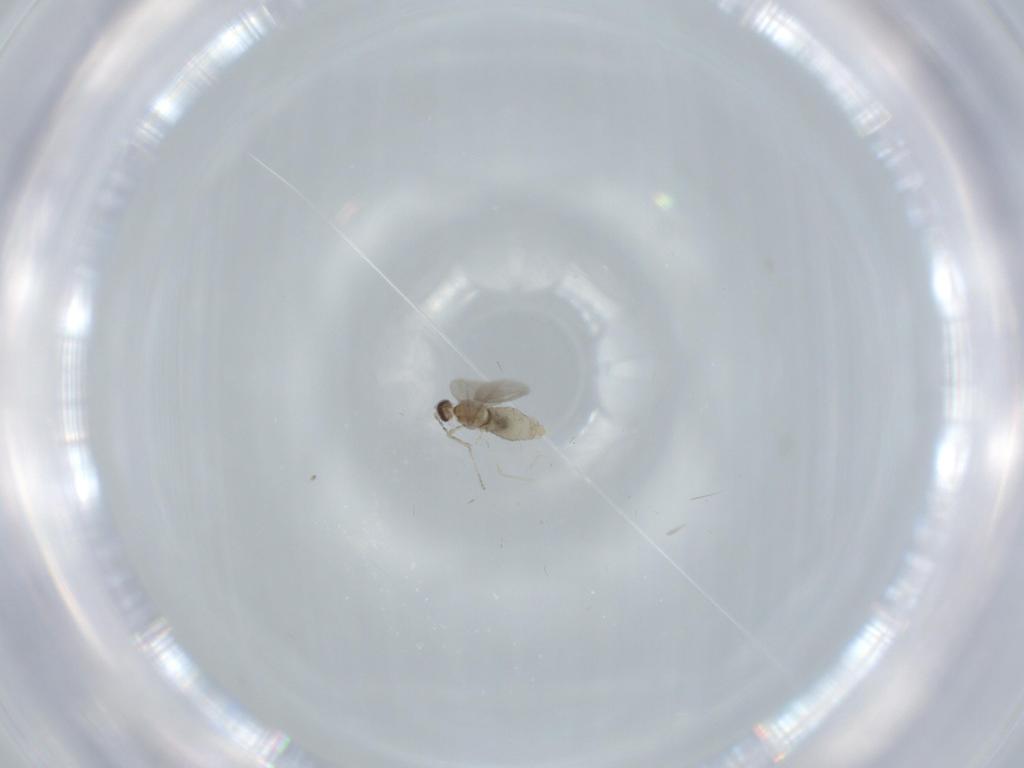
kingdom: Animalia
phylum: Arthropoda
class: Insecta
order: Diptera
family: Cecidomyiidae
